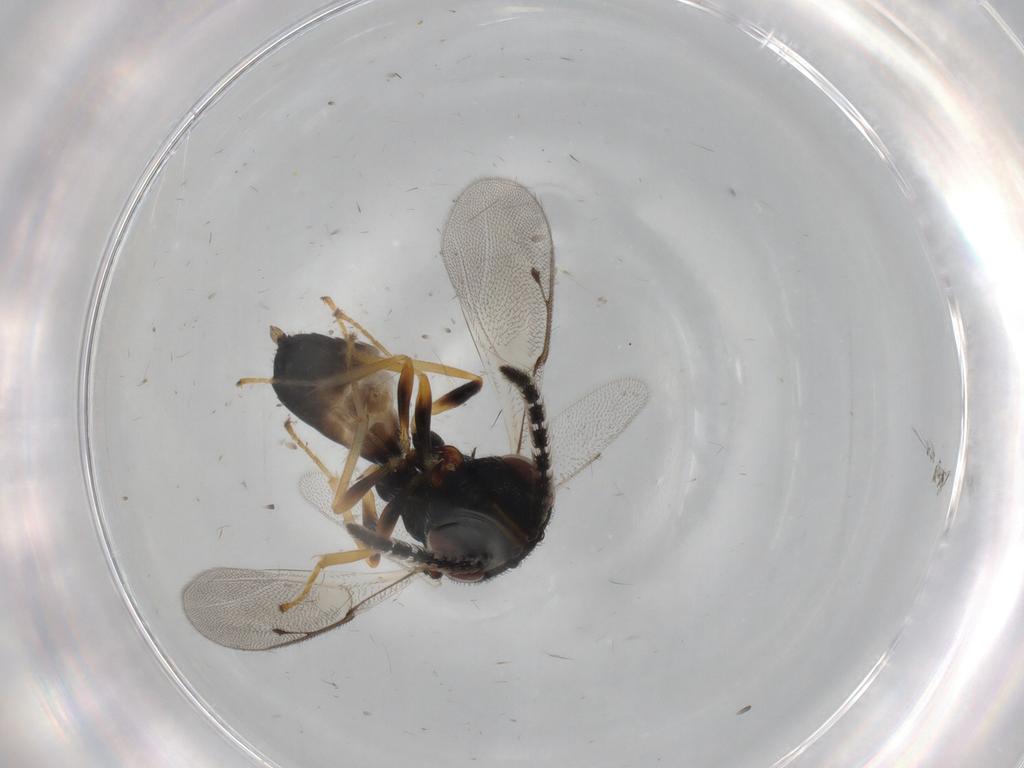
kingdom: Animalia
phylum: Arthropoda
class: Insecta
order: Hymenoptera
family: Pteromalidae
